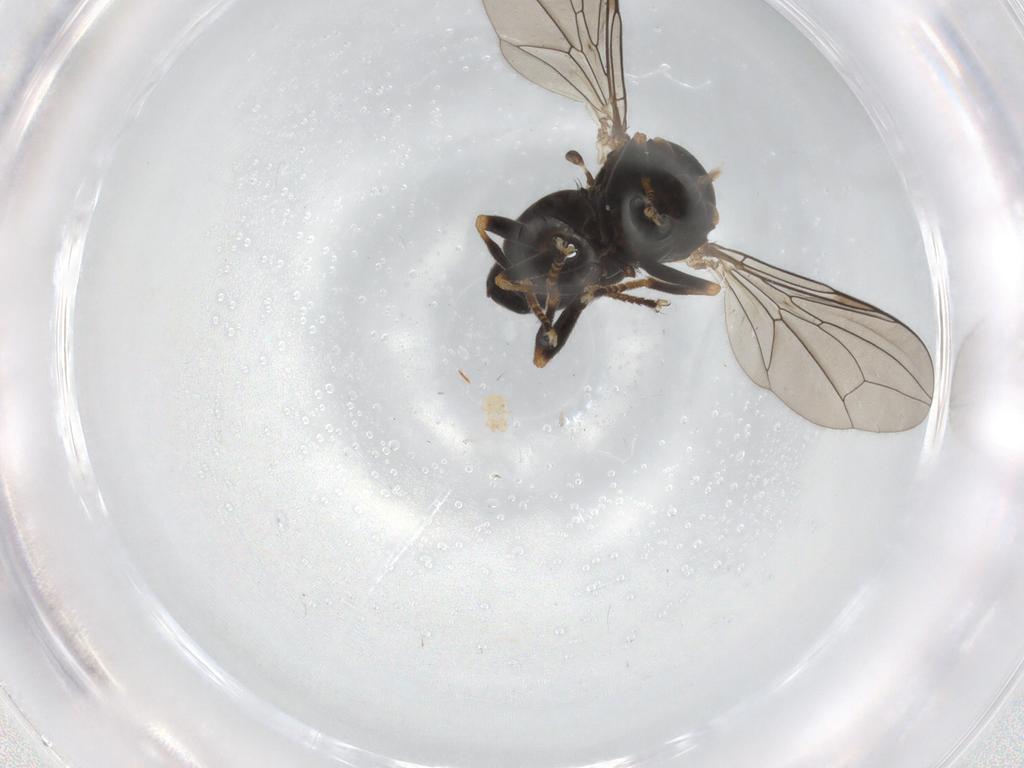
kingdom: Animalia
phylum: Arthropoda
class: Insecta
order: Diptera
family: Pipunculidae
